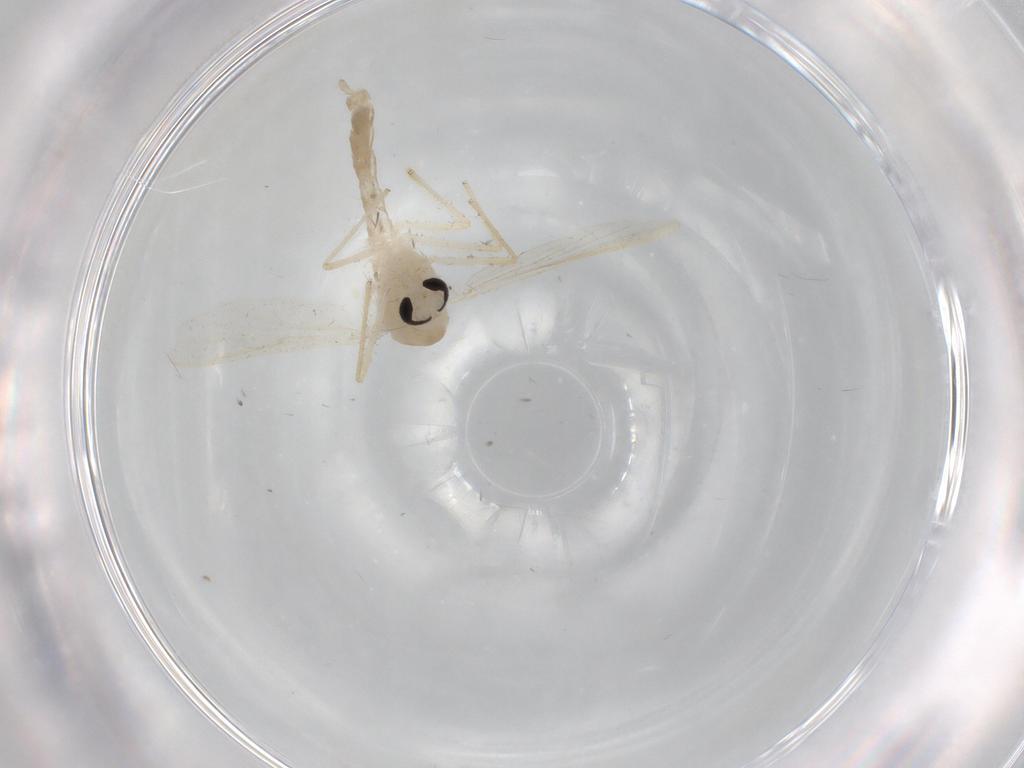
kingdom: Animalia
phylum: Arthropoda
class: Insecta
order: Diptera
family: Chironomidae
